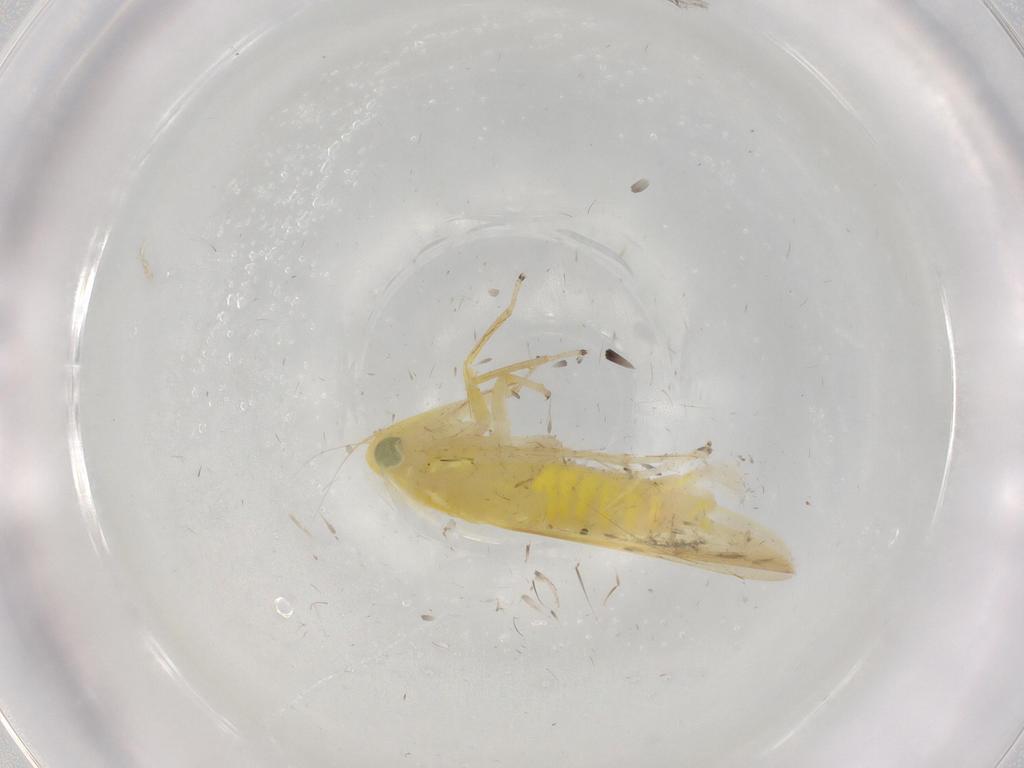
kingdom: Animalia
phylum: Arthropoda
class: Insecta
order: Hemiptera
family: Cicadellidae
